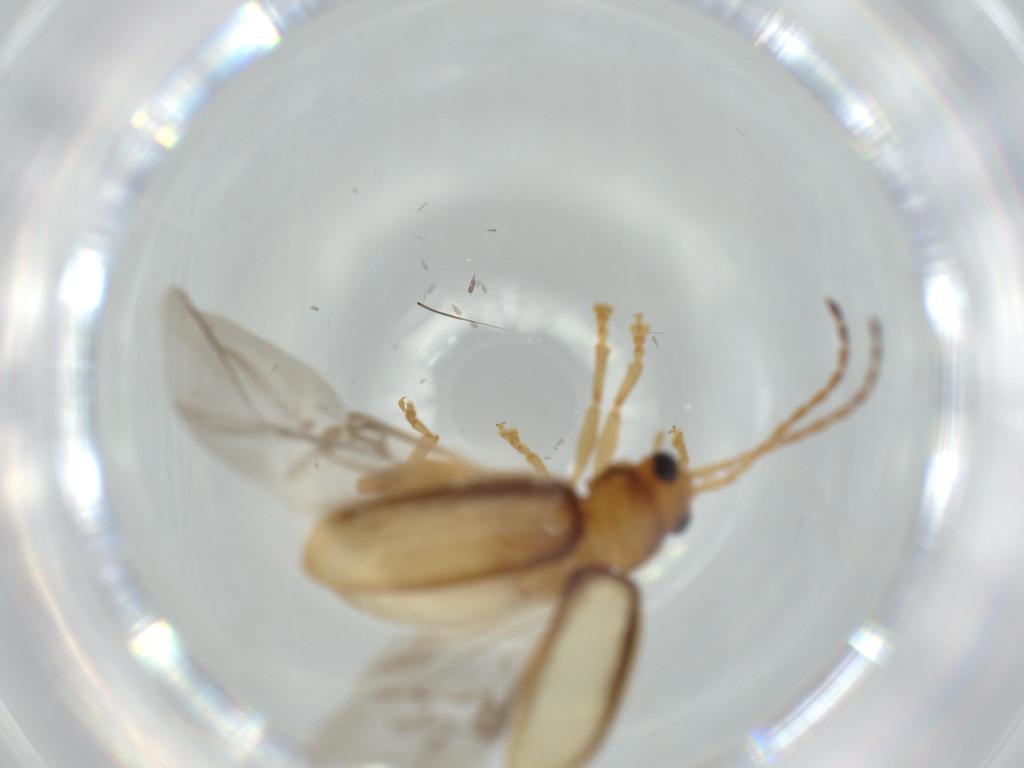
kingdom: Animalia
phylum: Arthropoda
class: Insecta
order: Coleoptera
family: Chrysomelidae
